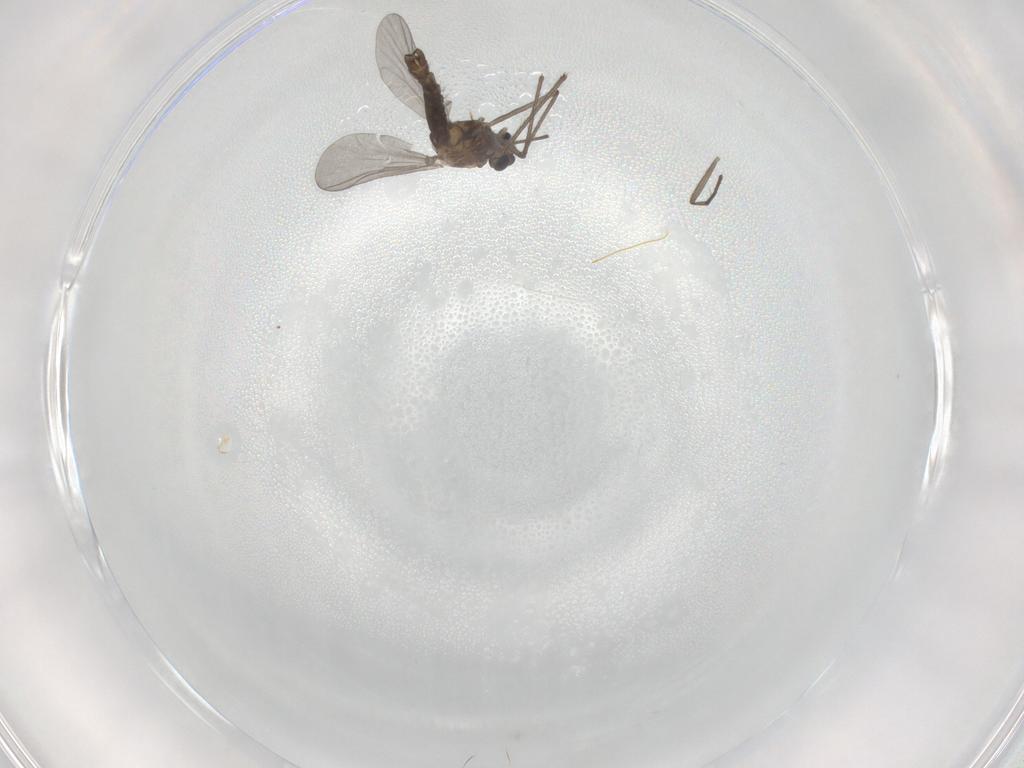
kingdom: Animalia
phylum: Arthropoda
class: Insecta
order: Diptera
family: Chironomidae
